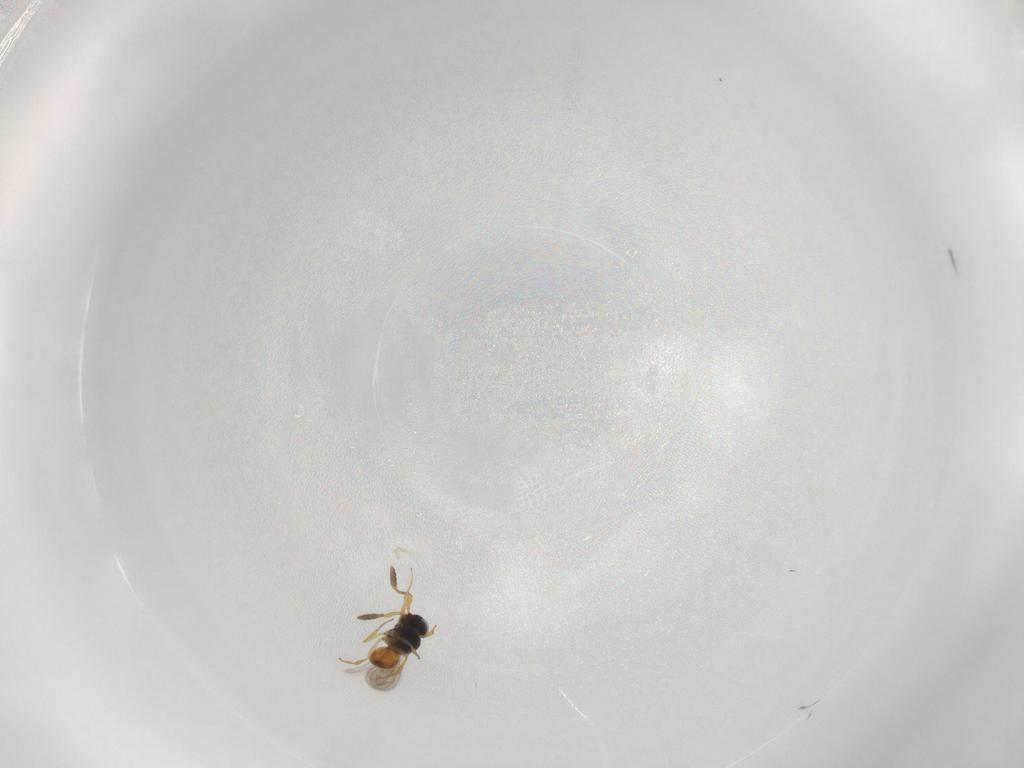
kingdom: Animalia
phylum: Arthropoda
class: Insecta
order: Hymenoptera
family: Scelionidae
